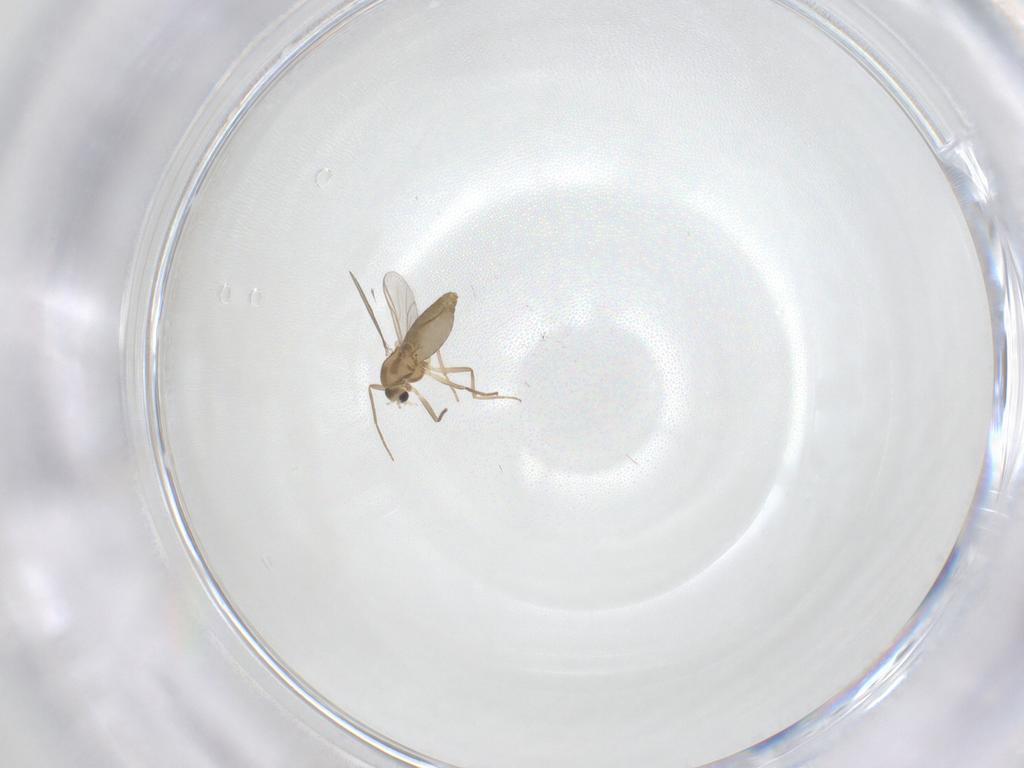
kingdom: Animalia
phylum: Arthropoda
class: Insecta
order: Diptera
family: Chironomidae
